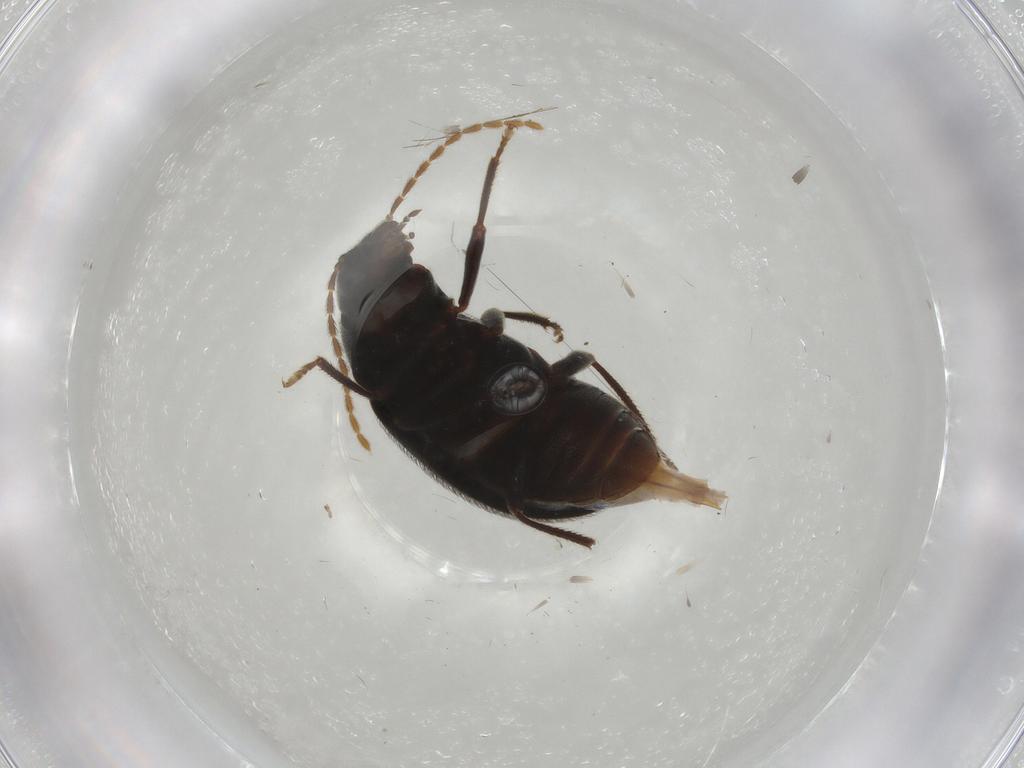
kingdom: Animalia
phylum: Arthropoda
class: Insecta
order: Coleoptera
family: Ptilodactylidae
